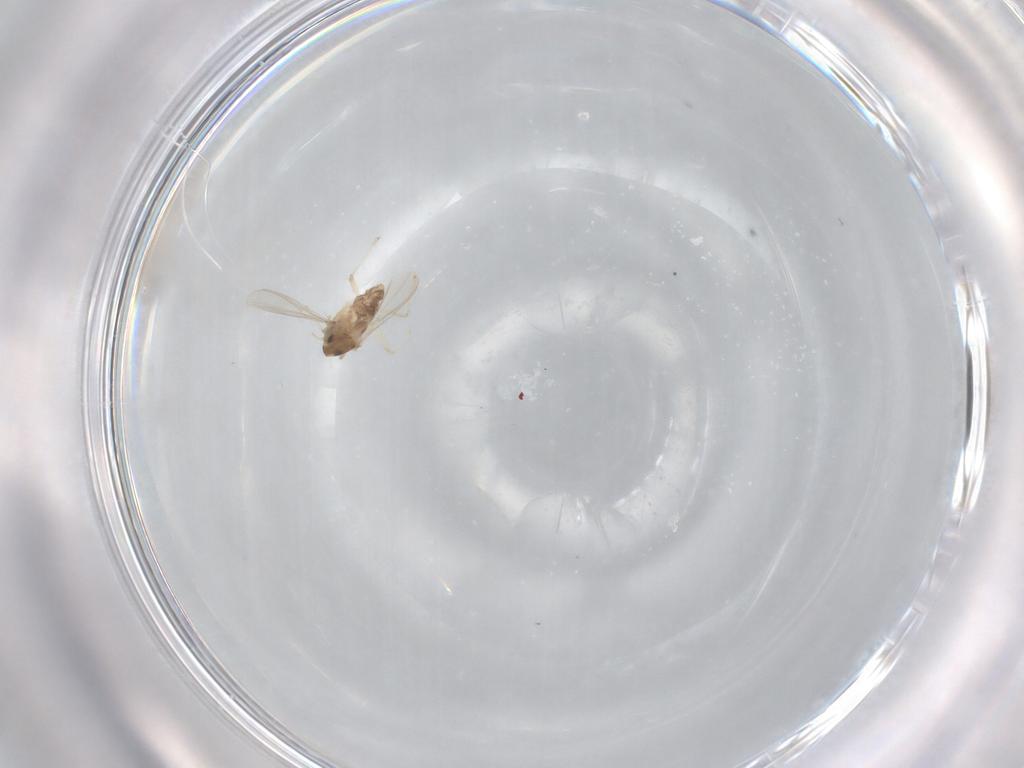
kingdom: Animalia
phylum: Arthropoda
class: Insecta
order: Diptera
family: Chironomidae
